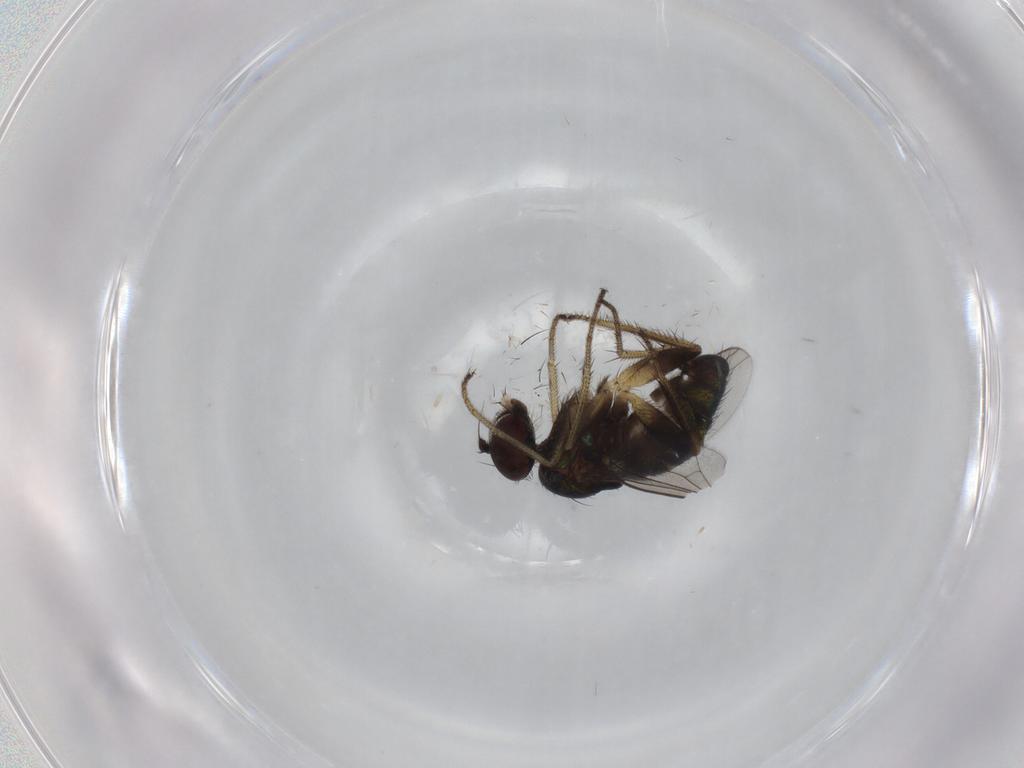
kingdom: Animalia
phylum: Arthropoda
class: Insecta
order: Diptera
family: Dolichopodidae
